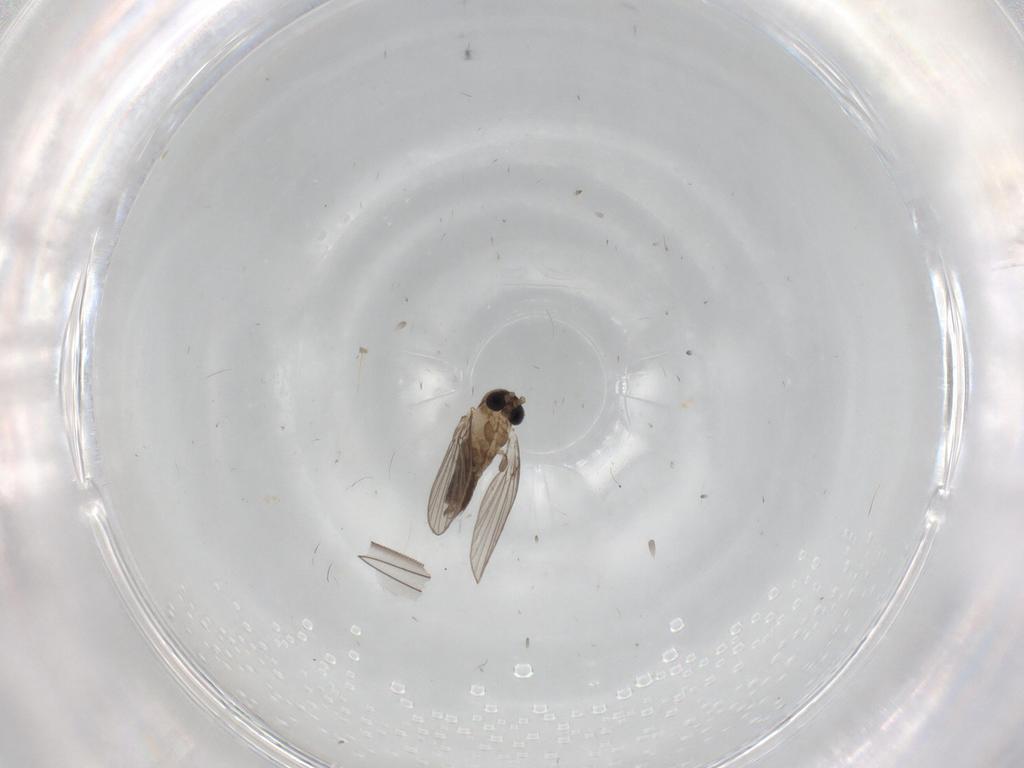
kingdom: Animalia
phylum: Arthropoda
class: Insecta
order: Diptera
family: Psychodidae
